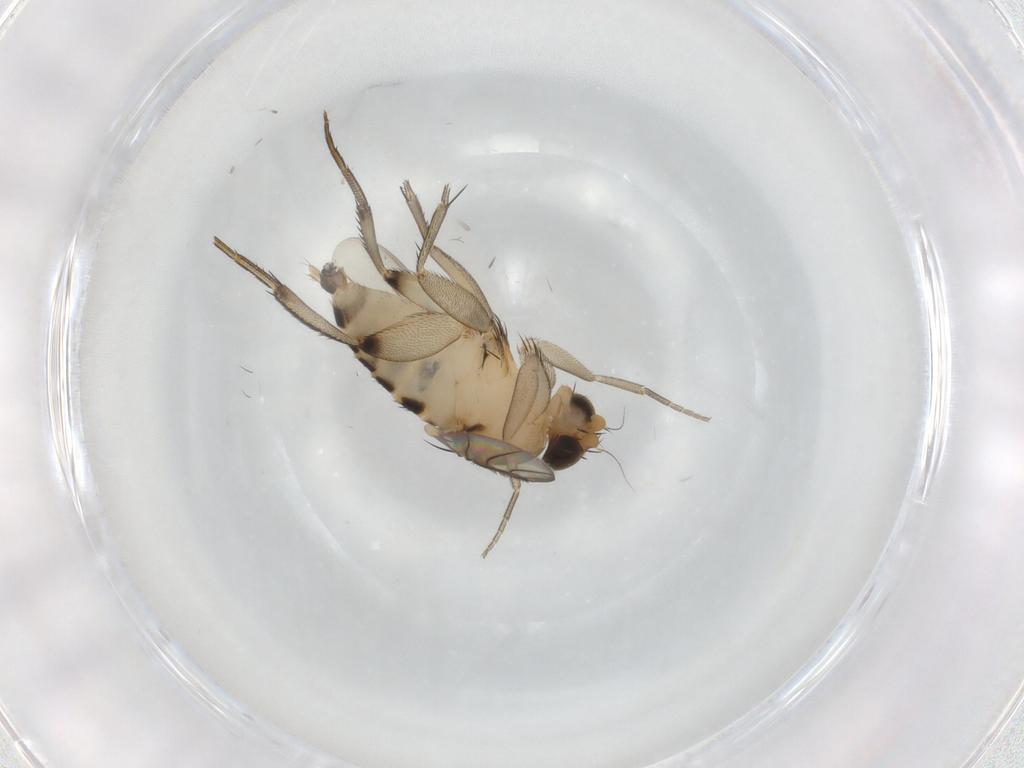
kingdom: Animalia
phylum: Arthropoda
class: Insecta
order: Diptera
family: Phoridae
